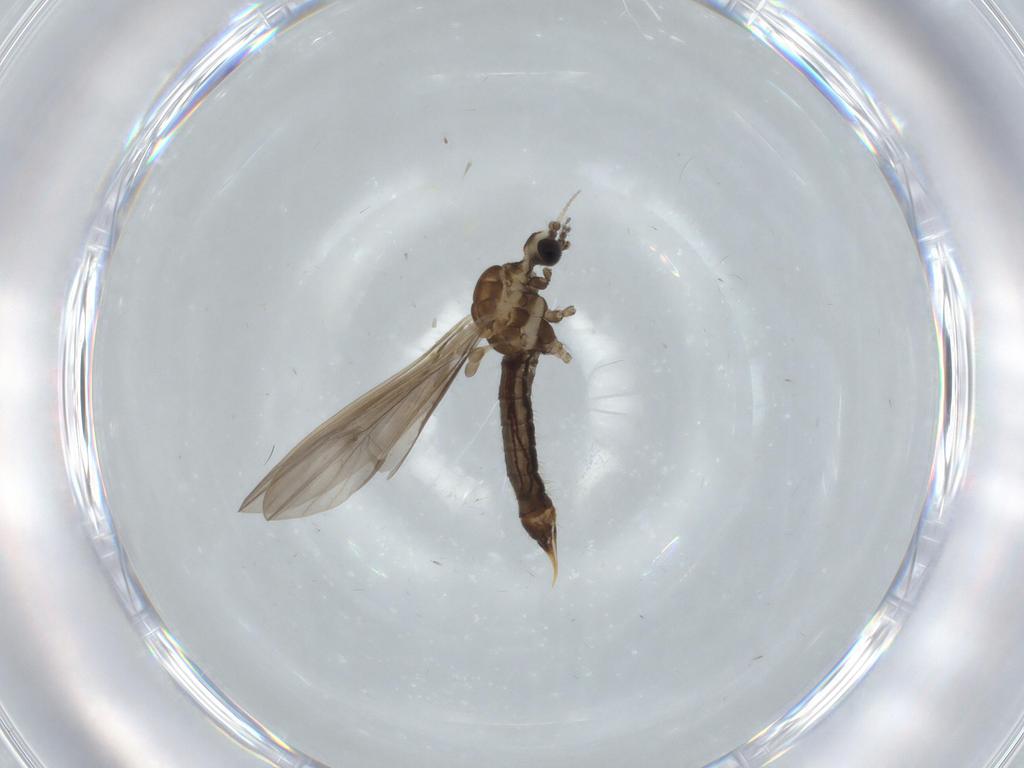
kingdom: Animalia
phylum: Arthropoda
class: Insecta
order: Diptera
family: Limoniidae
